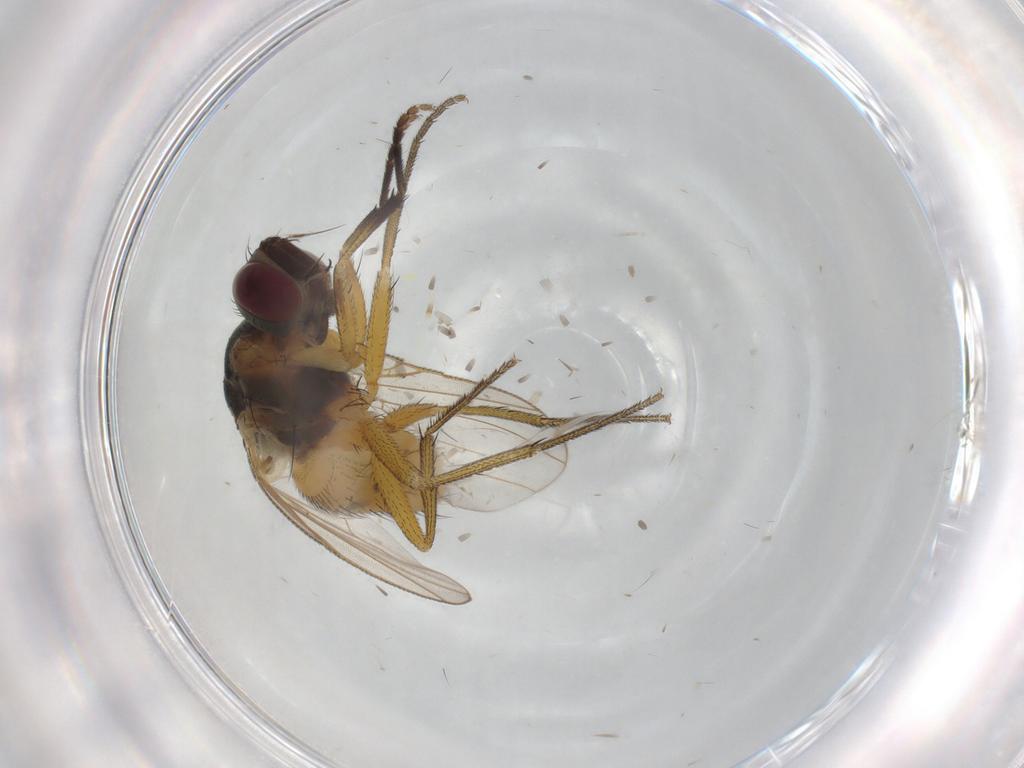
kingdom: Animalia
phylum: Arthropoda
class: Insecta
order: Diptera
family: Muscidae
